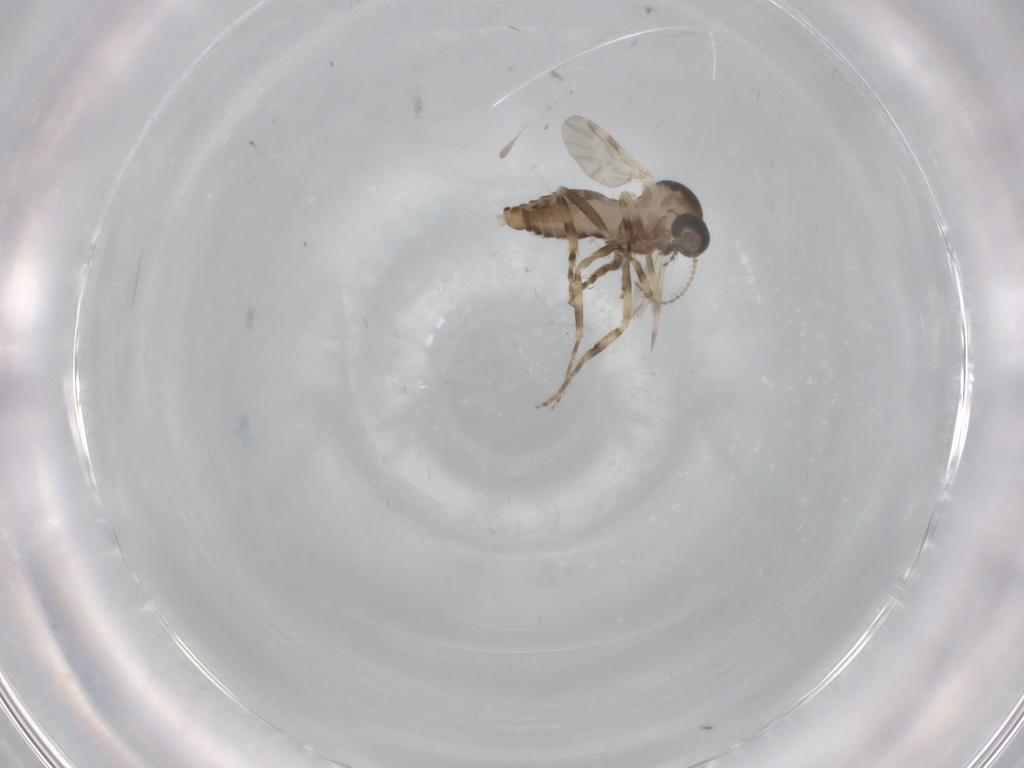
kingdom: Animalia
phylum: Arthropoda
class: Insecta
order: Diptera
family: Ceratopogonidae
